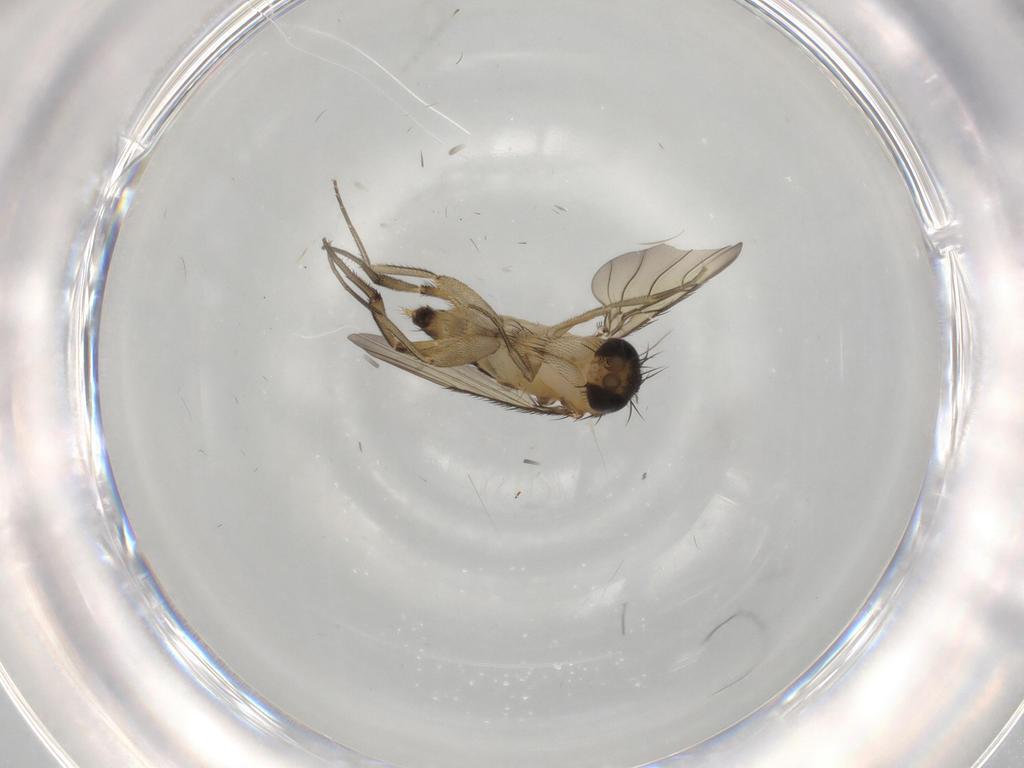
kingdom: Animalia
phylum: Arthropoda
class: Insecta
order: Diptera
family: Phoridae
